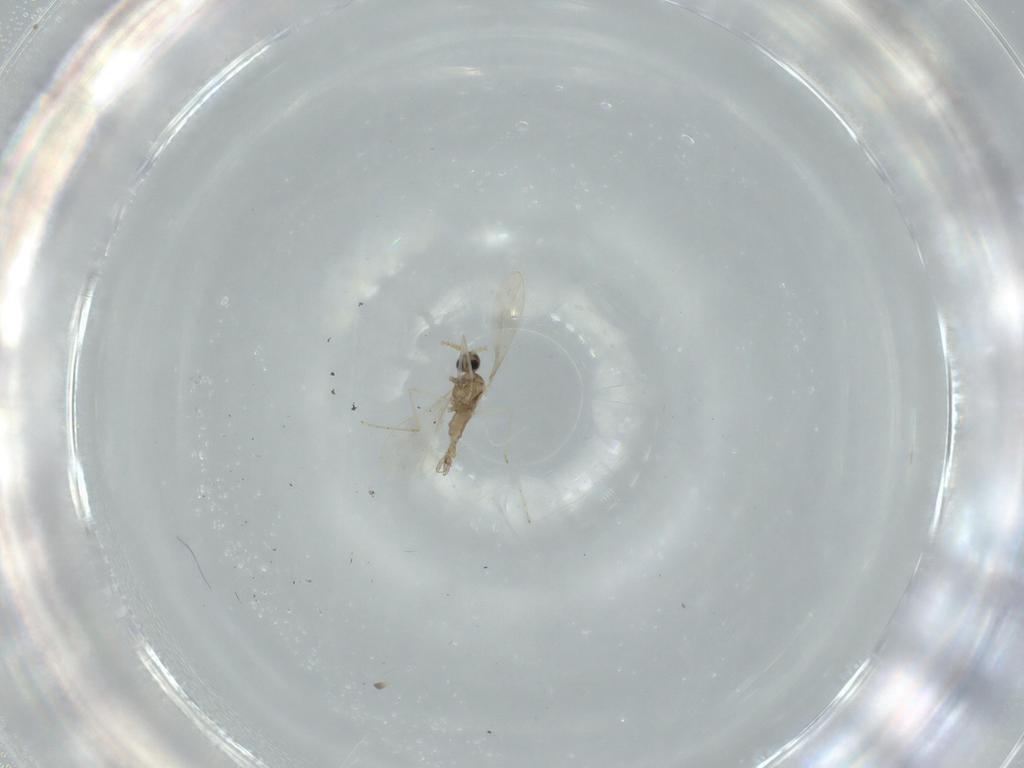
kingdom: Animalia
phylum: Arthropoda
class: Insecta
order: Diptera
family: Cecidomyiidae
